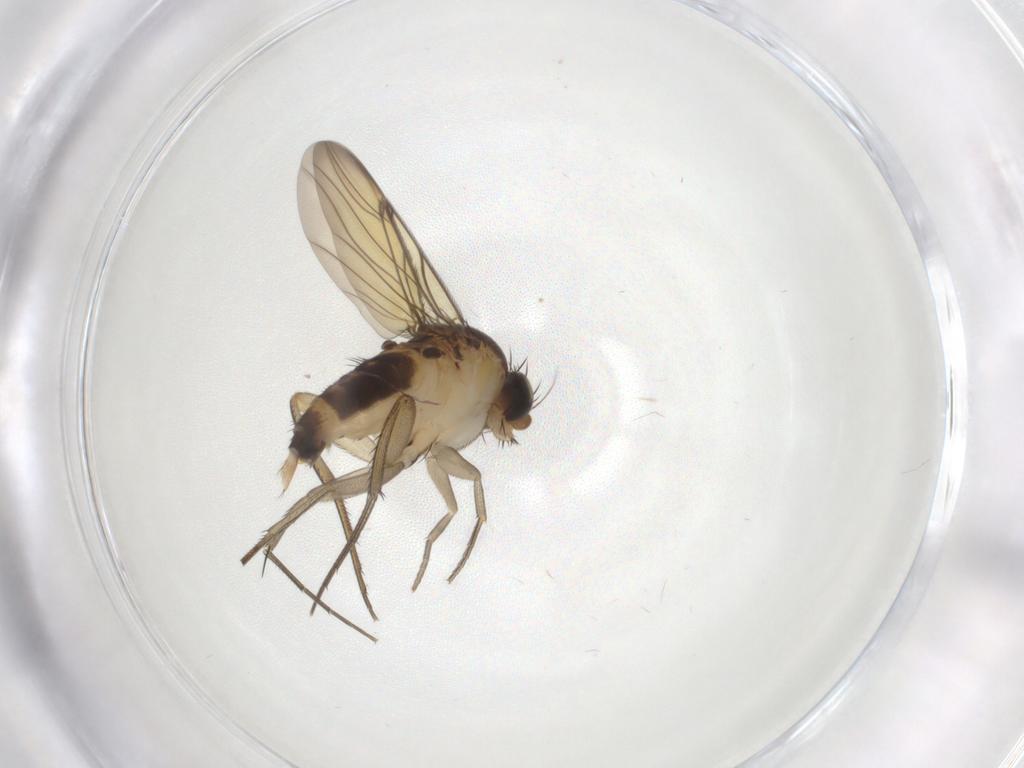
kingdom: Animalia
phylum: Arthropoda
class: Insecta
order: Diptera
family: Phoridae
